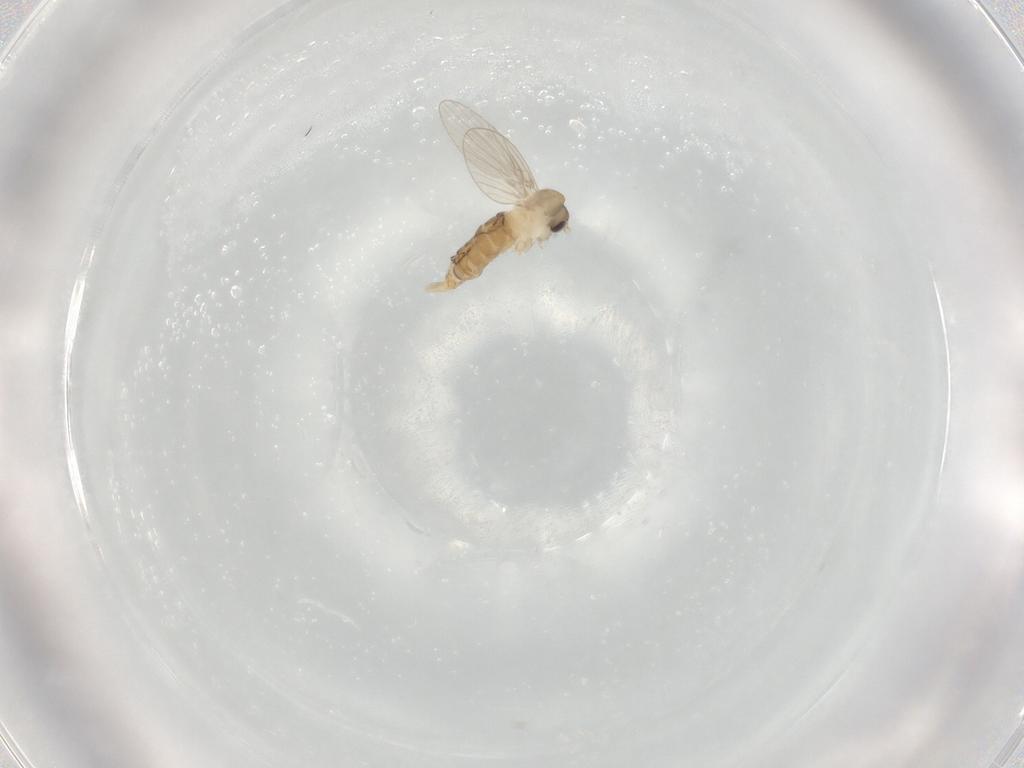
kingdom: Animalia
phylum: Arthropoda
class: Insecta
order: Diptera
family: Psychodidae
